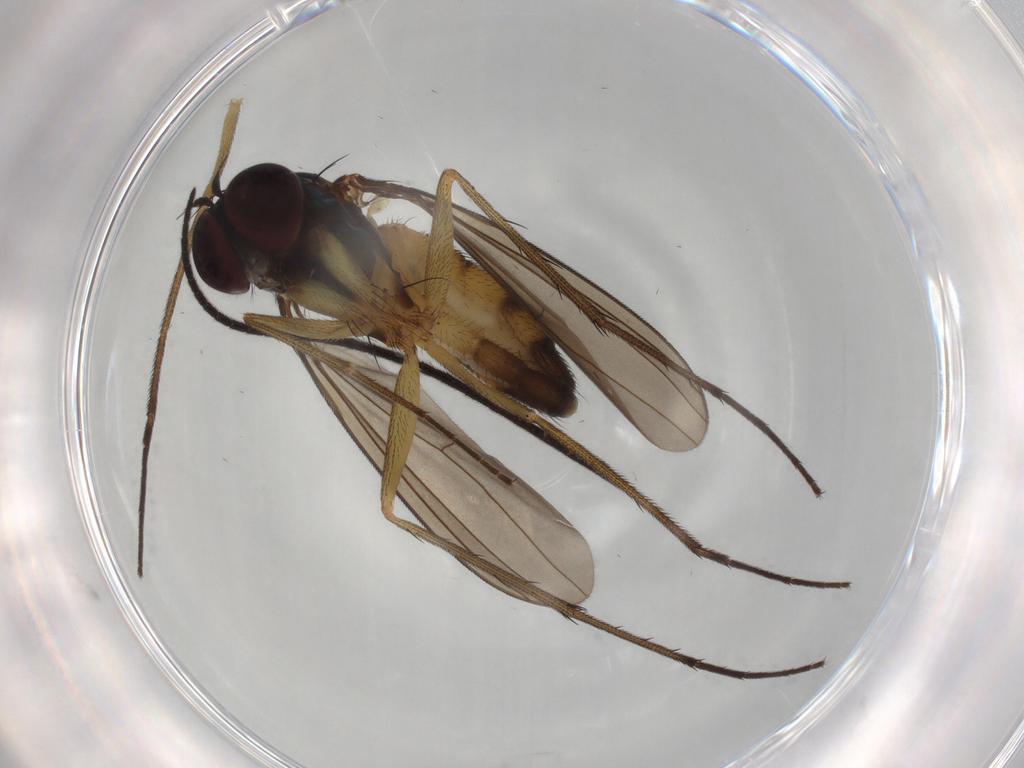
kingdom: Animalia
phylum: Arthropoda
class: Insecta
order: Diptera
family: Dolichopodidae
